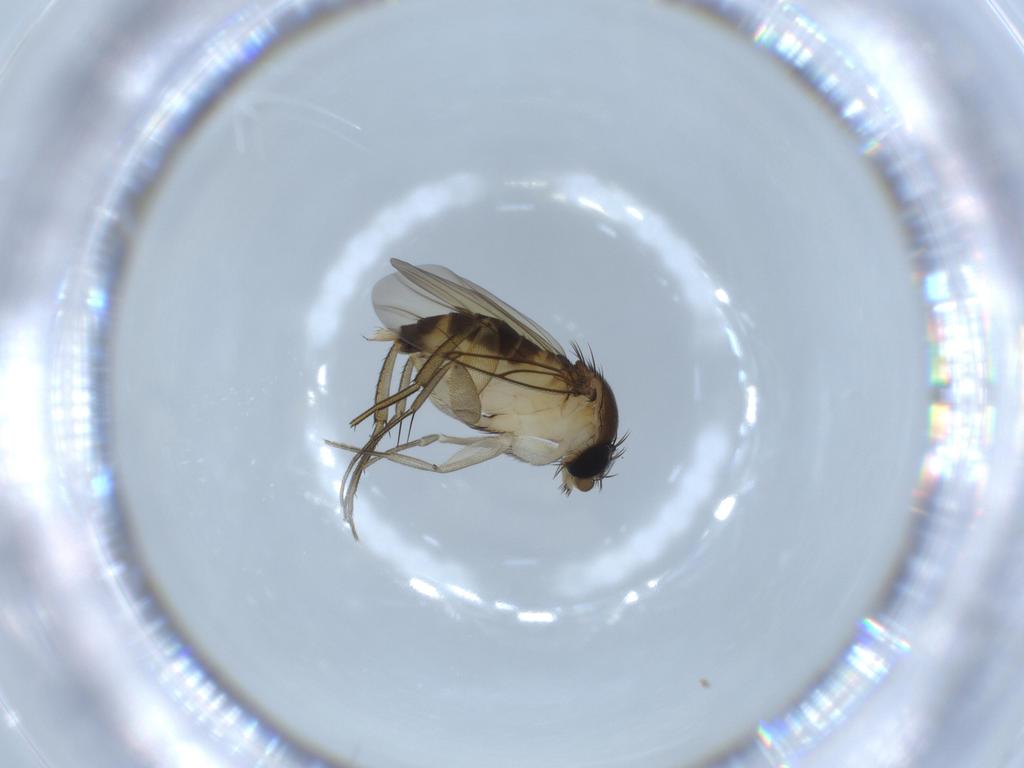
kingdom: Animalia
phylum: Arthropoda
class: Insecta
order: Diptera
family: Phoridae
